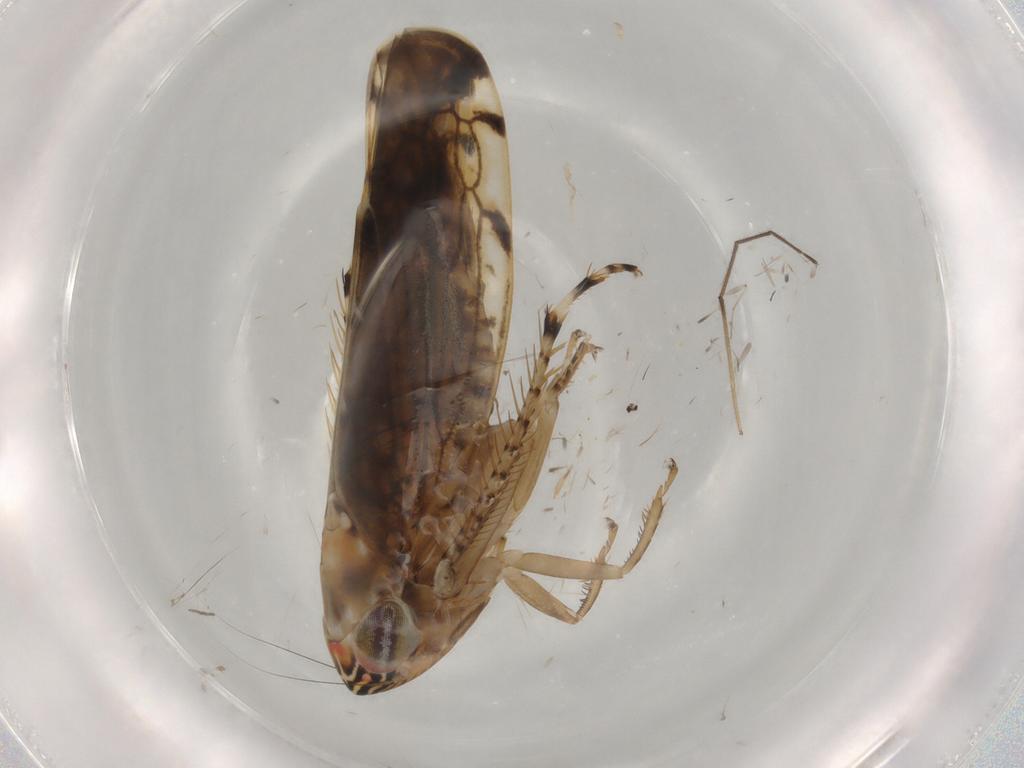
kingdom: Animalia
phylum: Arthropoda
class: Insecta
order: Hemiptera
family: Cicadellidae
